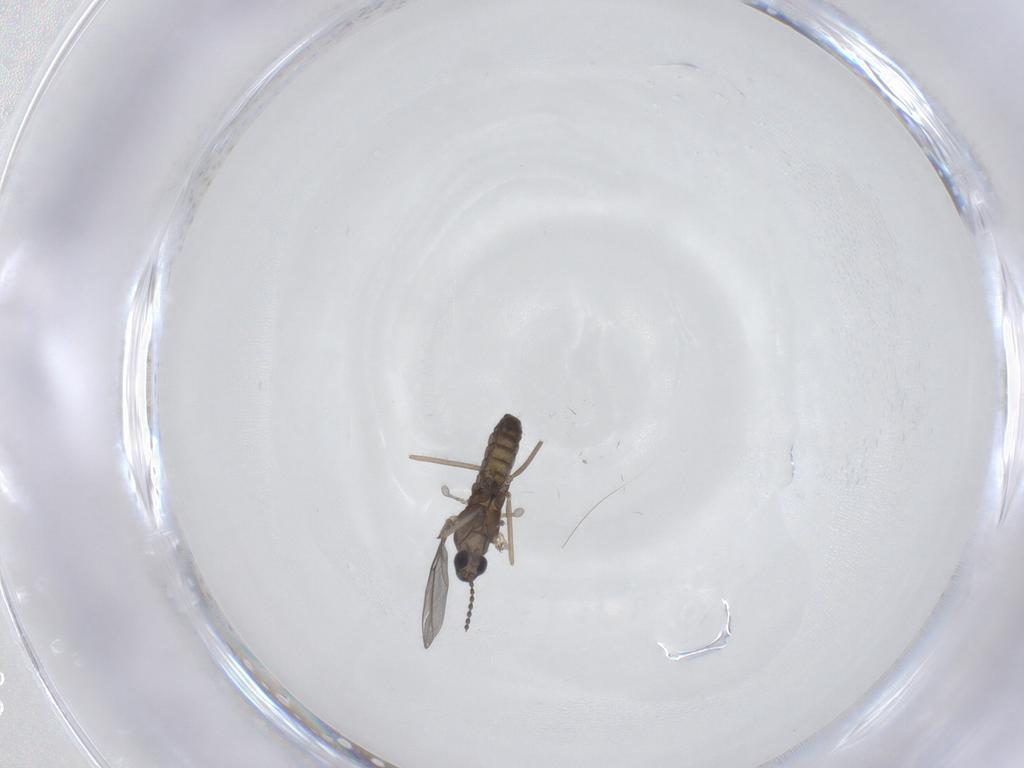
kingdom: Animalia
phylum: Arthropoda
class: Insecta
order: Diptera
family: Cecidomyiidae
